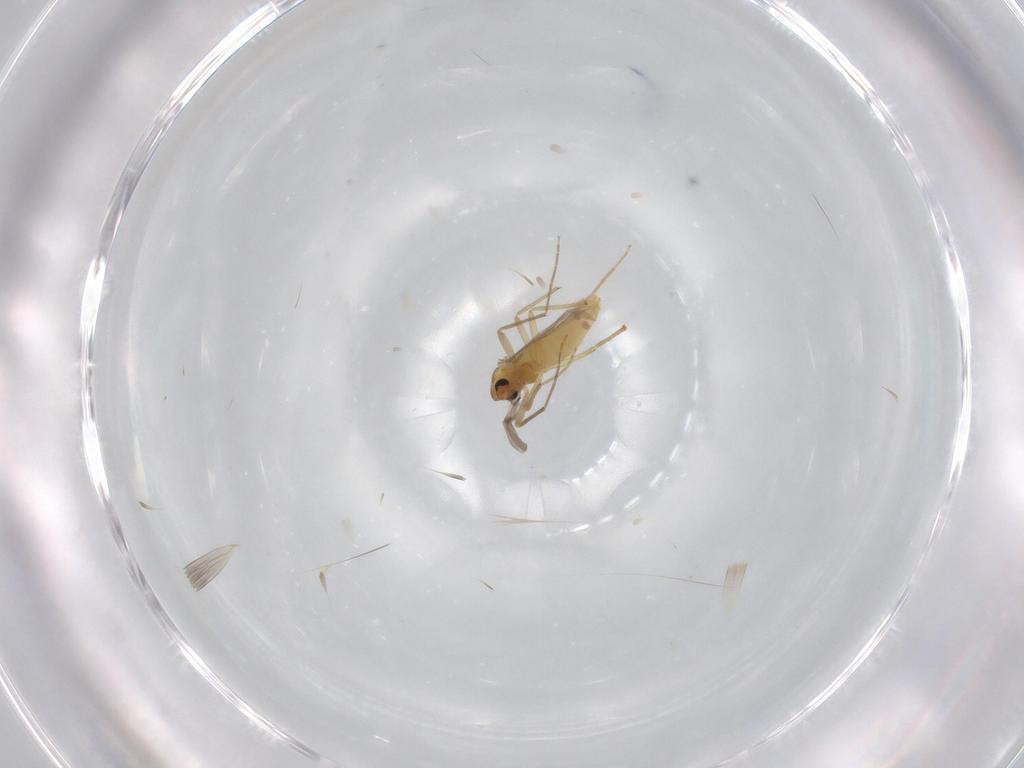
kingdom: Animalia
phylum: Arthropoda
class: Insecta
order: Diptera
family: Chironomidae
